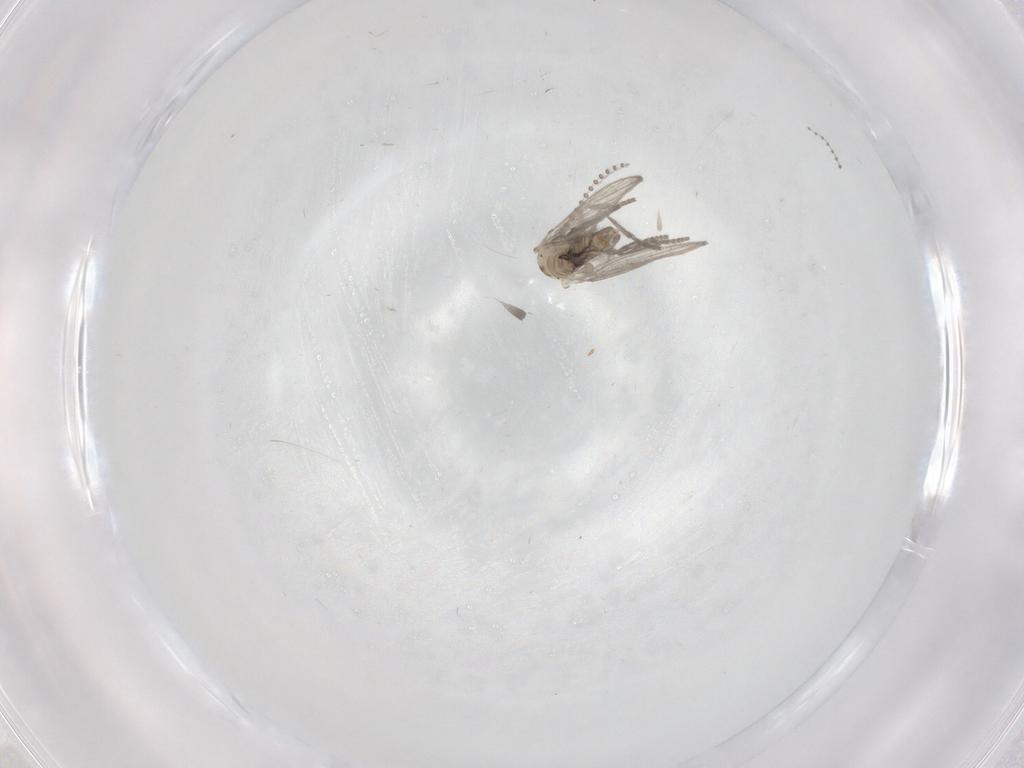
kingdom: Animalia
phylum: Arthropoda
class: Insecta
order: Diptera
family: Psychodidae
